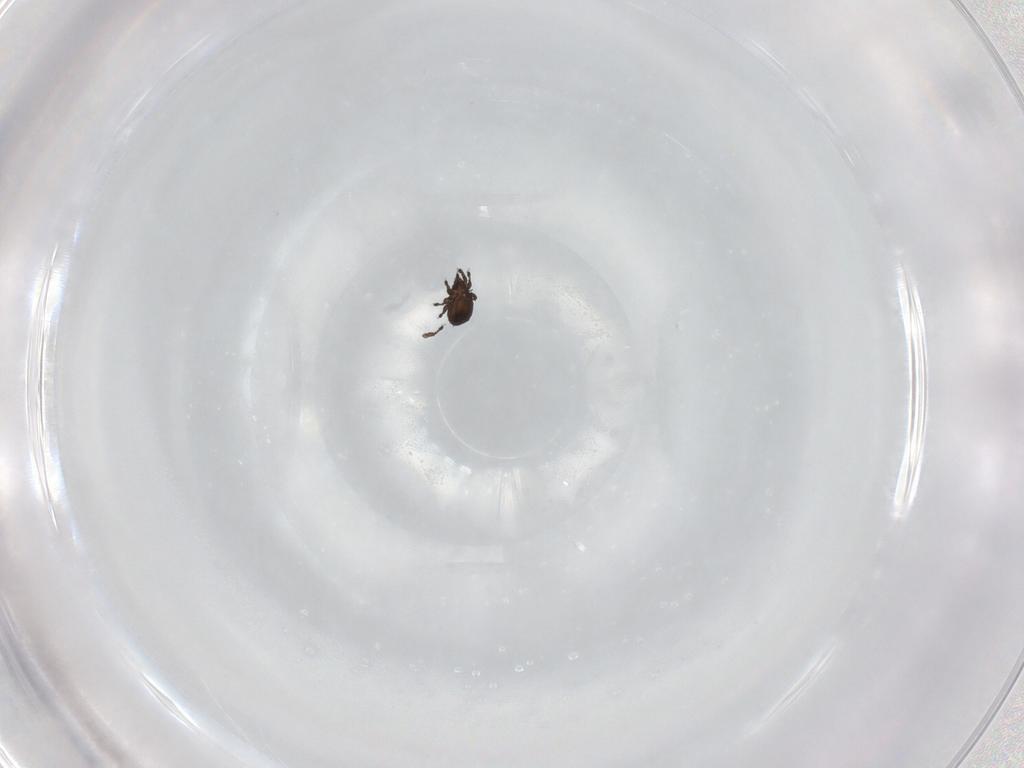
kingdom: Animalia
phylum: Arthropoda
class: Arachnida
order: Sarcoptiformes
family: Cymbaeremaeidae
